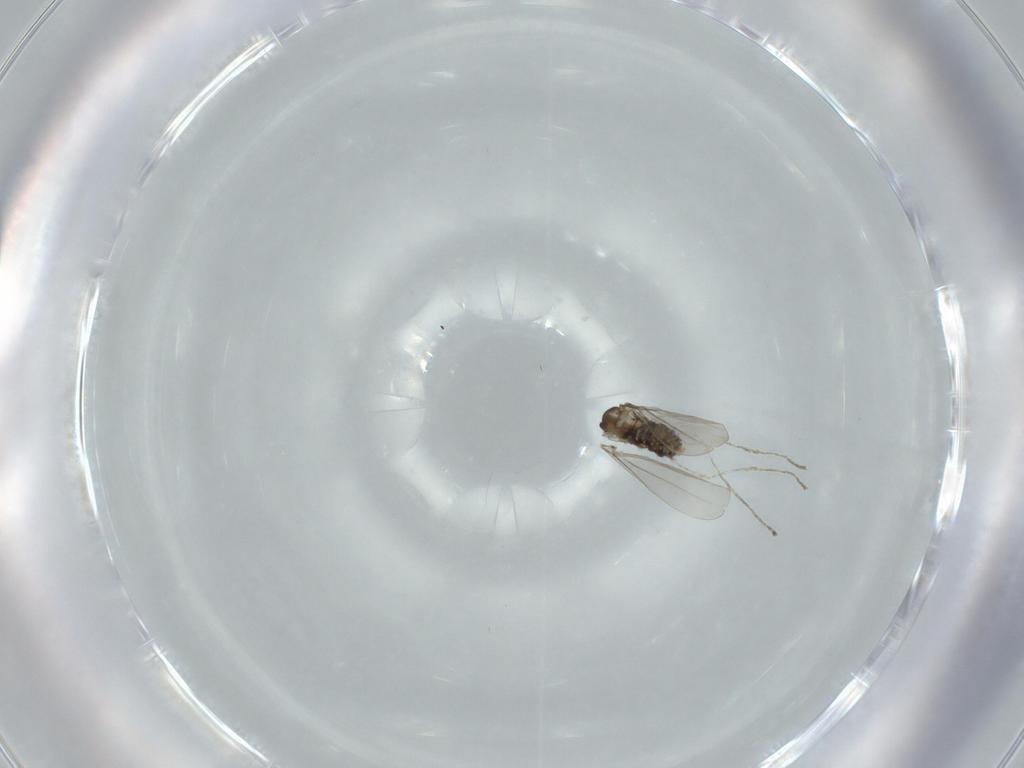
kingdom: Animalia
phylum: Arthropoda
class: Insecta
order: Diptera
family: Cecidomyiidae
